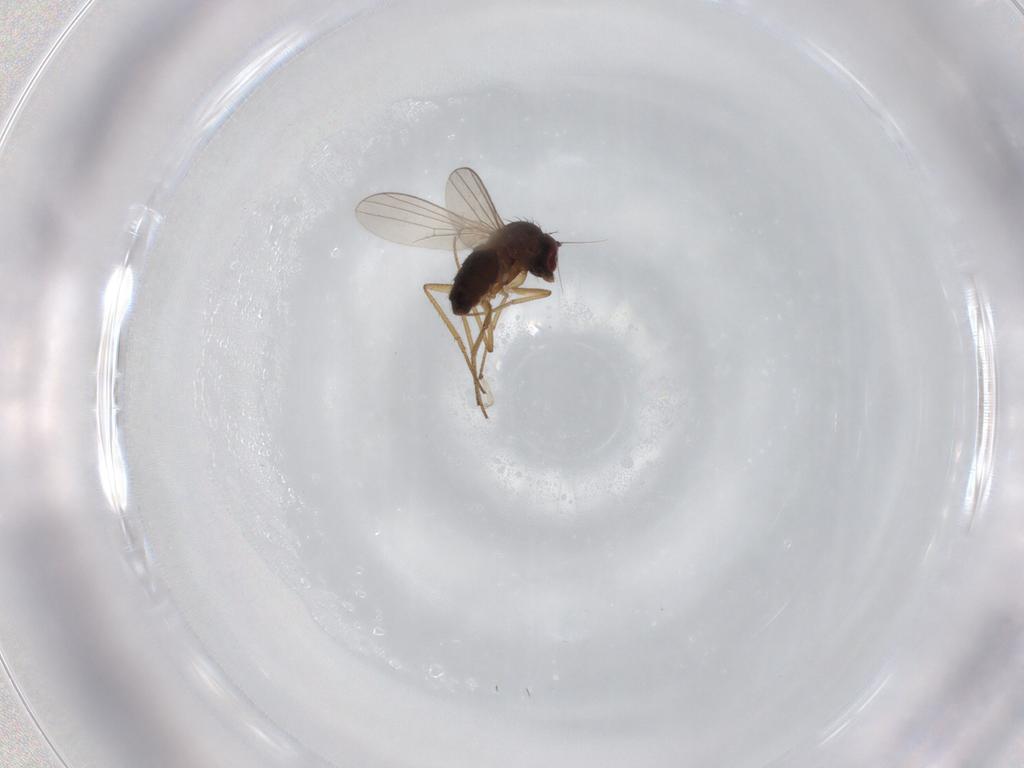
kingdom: Animalia
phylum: Arthropoda
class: Insecta
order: Diptera
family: Dolichopodidae
